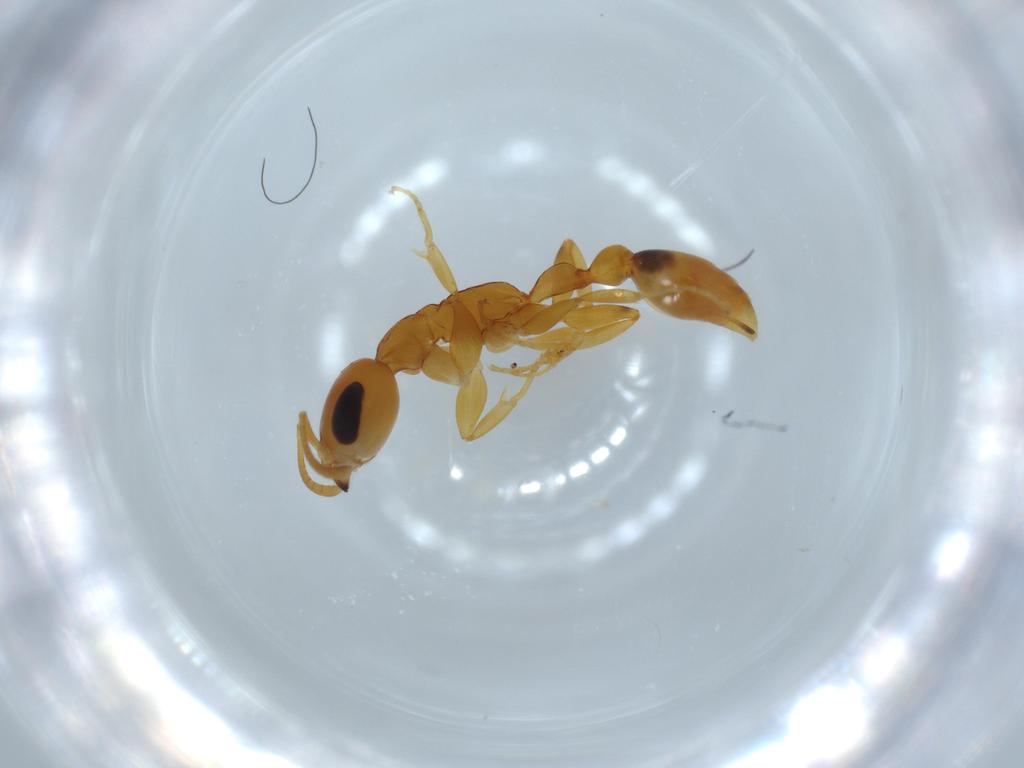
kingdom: Animalia
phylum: Arthropoda
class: Insecta
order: Hymenoptera
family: Formicidae
